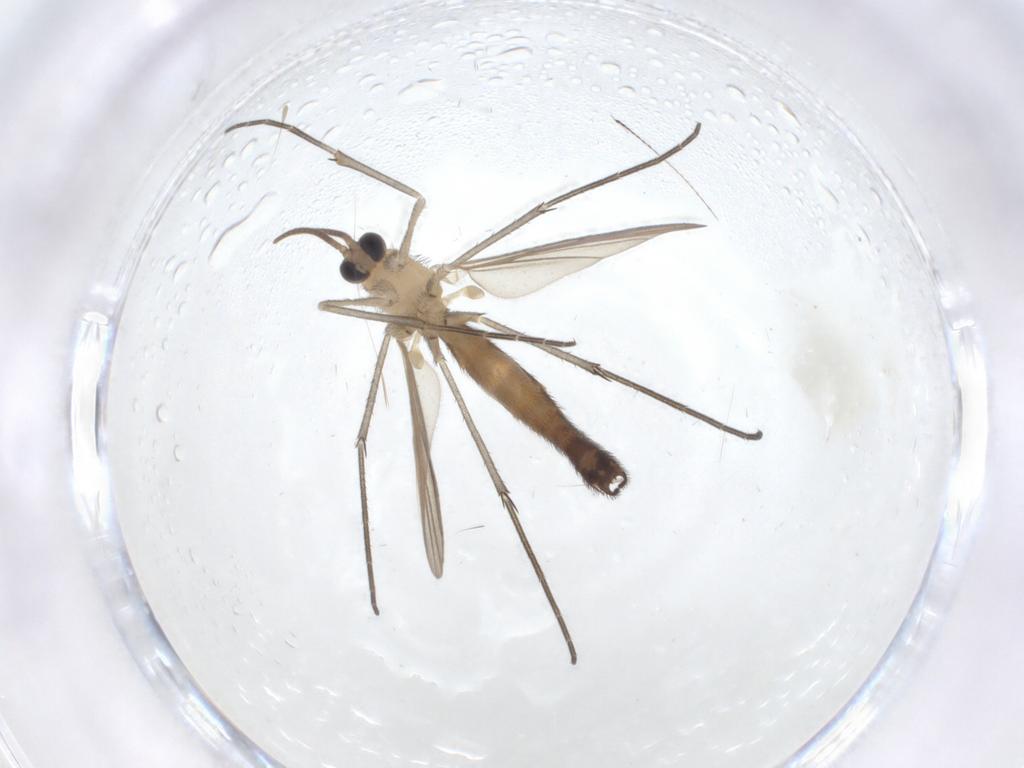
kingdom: Animalia
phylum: Arthropoda
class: Insecta
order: Diptera
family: Keroplatidae
